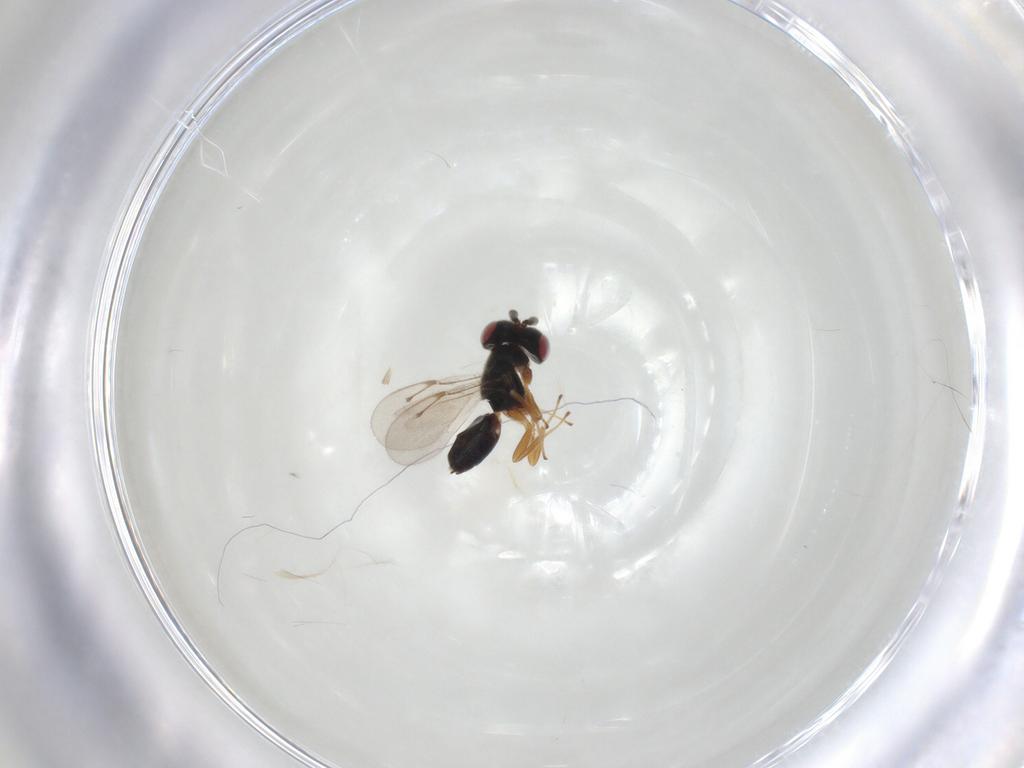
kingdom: Animalia
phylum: Arthropoda
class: Insecta
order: Hymenoptera
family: Pteromalidae
